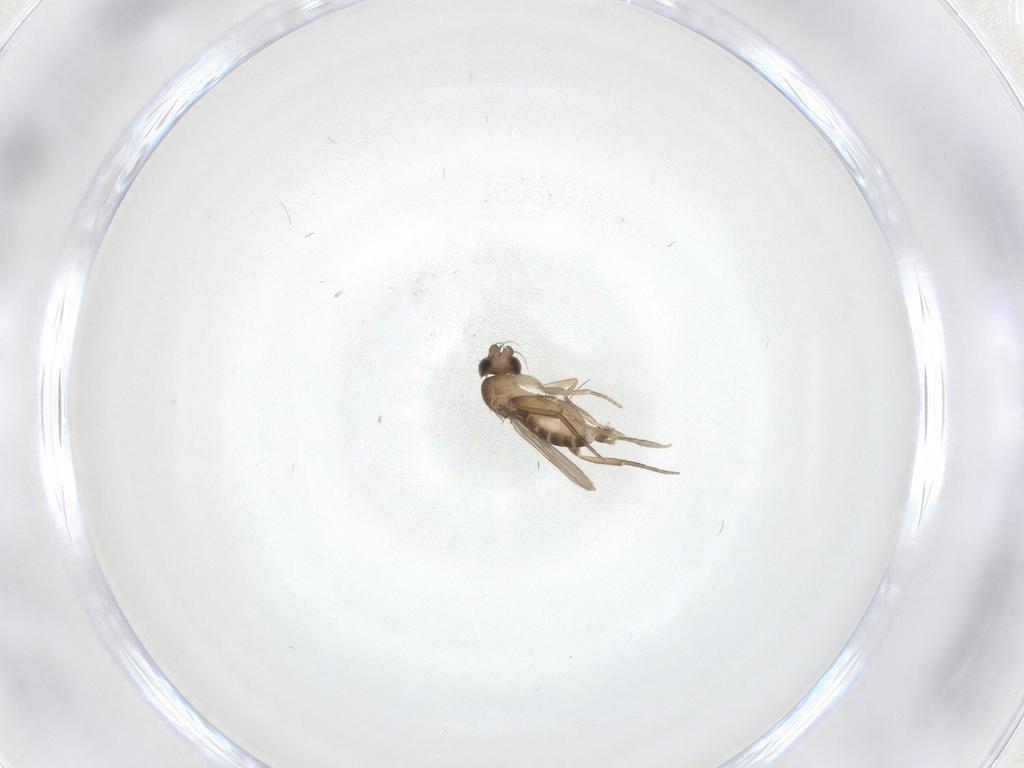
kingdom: Animalia
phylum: Arthropoda
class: Insecta
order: Diptera
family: Phoridae
